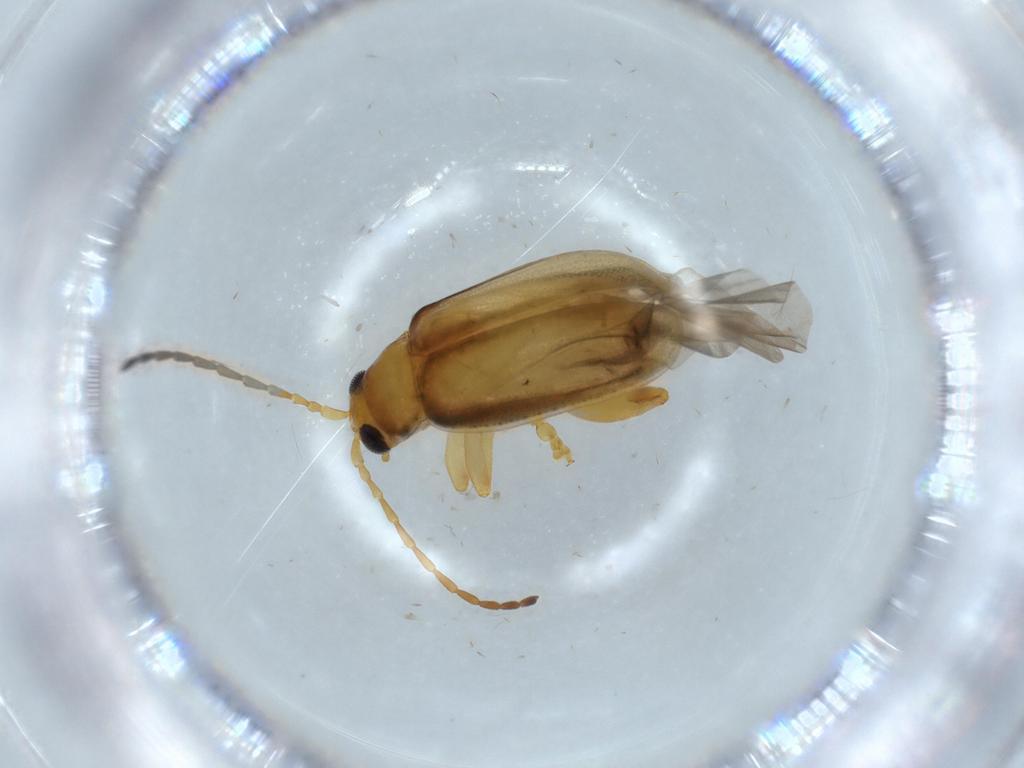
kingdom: Animalia
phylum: Arthropoda
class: Insecta
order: Coleoptera
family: Chrysomelidae
